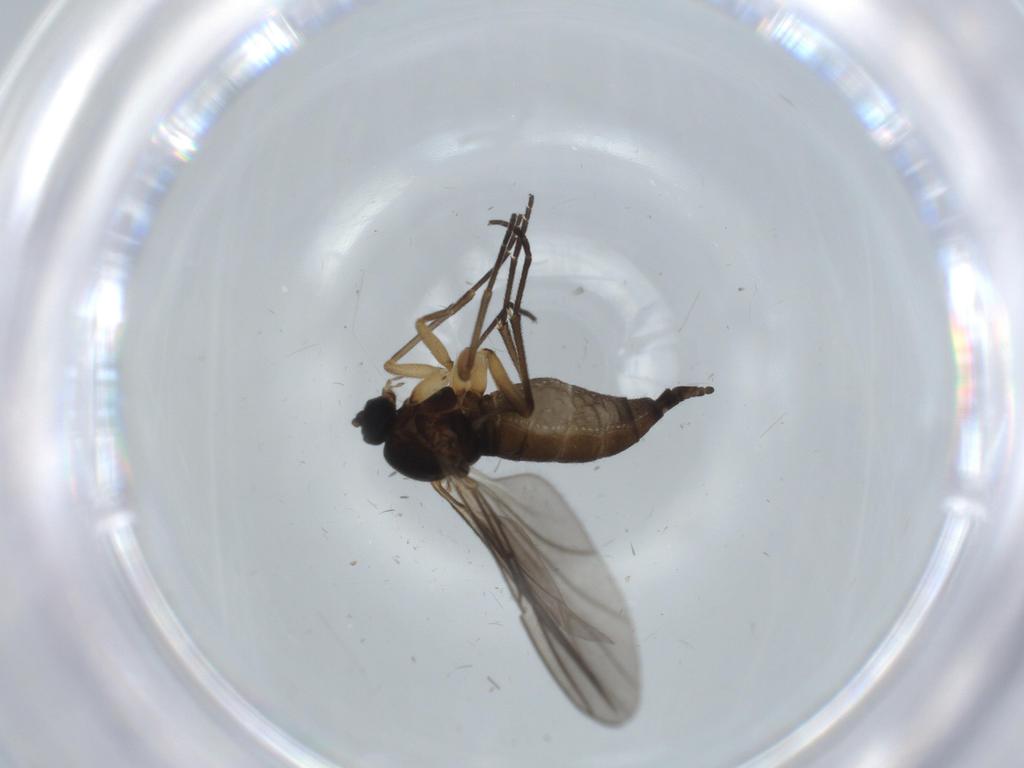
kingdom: Animalia
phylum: Arthropoda
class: Insecta
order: Diptera
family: Sciaridae
